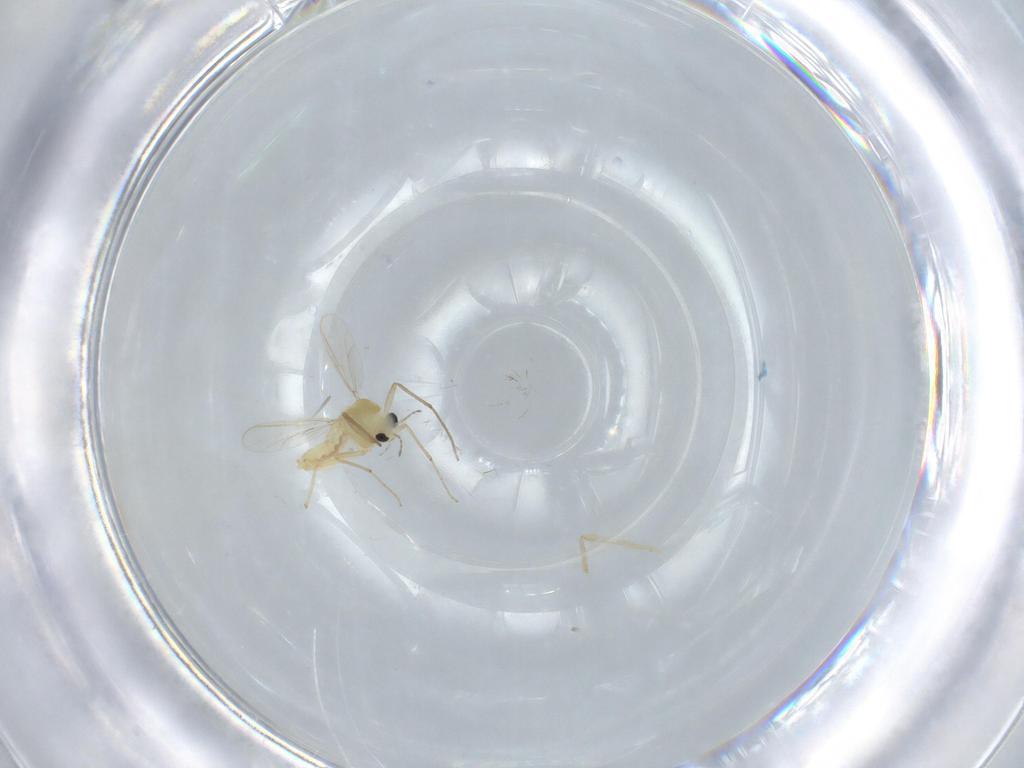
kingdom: Animalia
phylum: Arthropoda
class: Insecta
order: Diptera
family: Chironomidae
